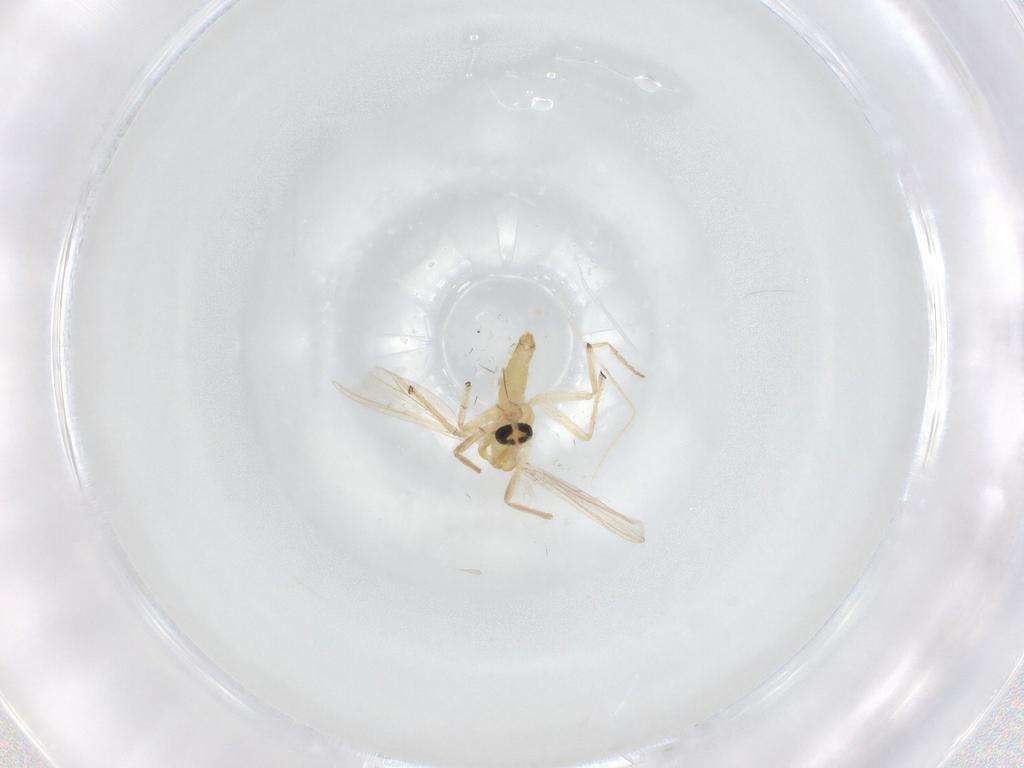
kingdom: Animalia
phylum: Arthropoda
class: Insecta
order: Diptera
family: Chironomidae
